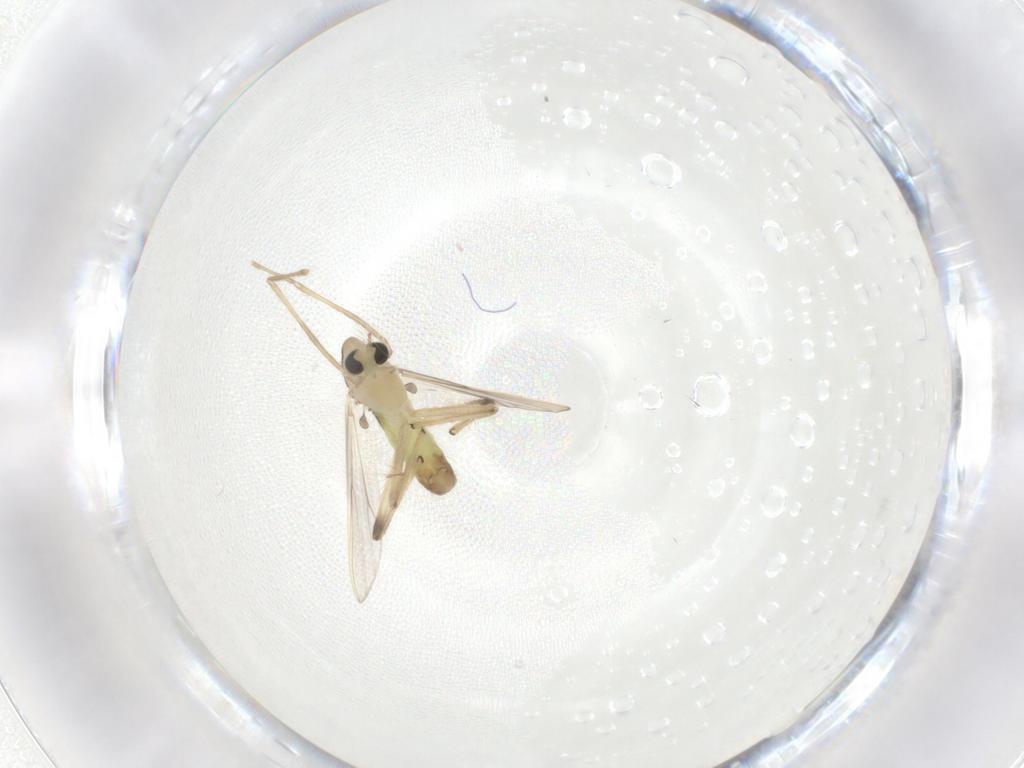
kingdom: Animalia
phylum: Arthropoda
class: Insecta
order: Diptera
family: Chironomidae
